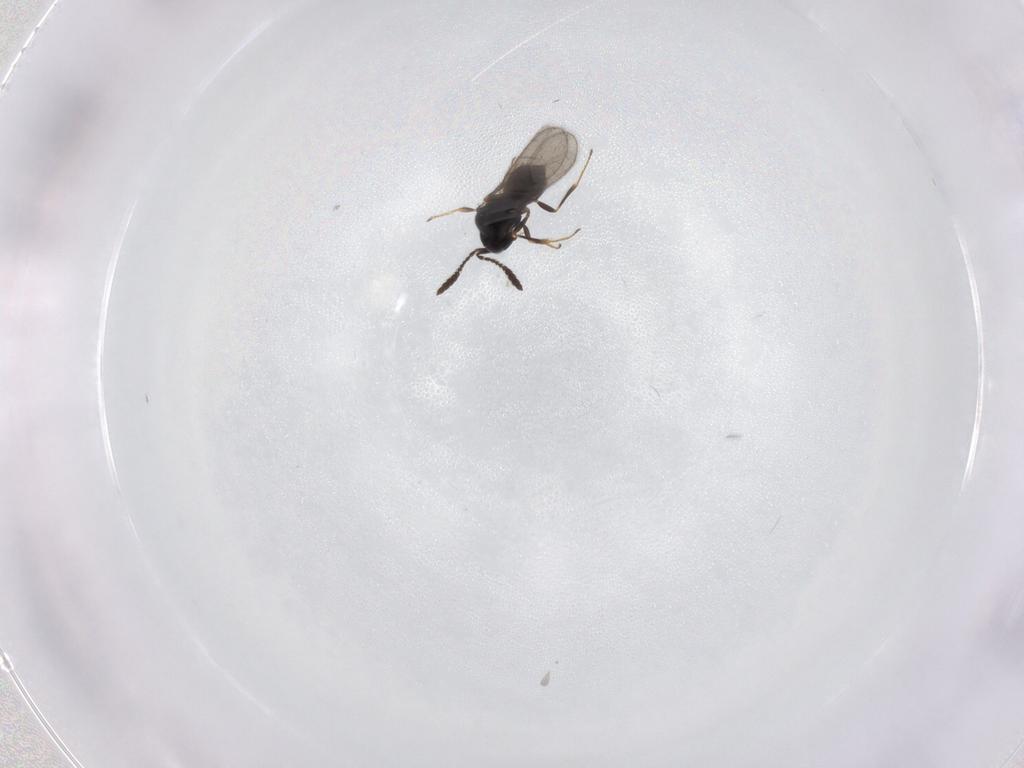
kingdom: Animalia
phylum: Arthropoda
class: Insecta
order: Hymenoptera
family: Scelionidae
